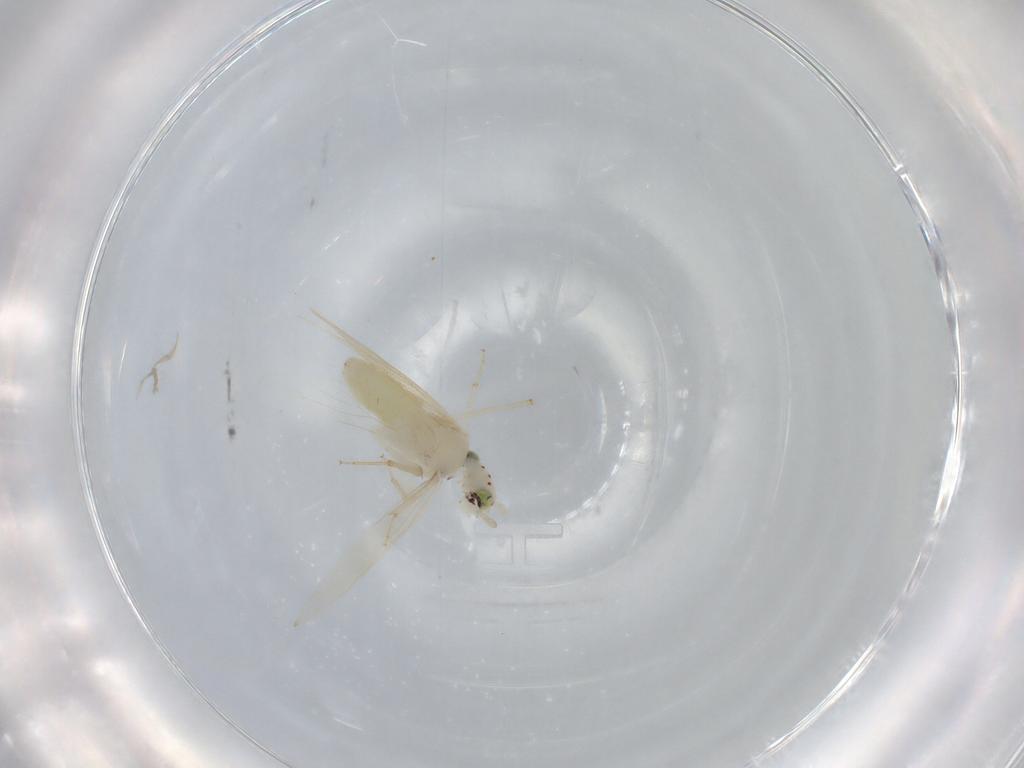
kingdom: Animalia
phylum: Arthropoda
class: Insecta
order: Psocodea
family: Lepidopsocidae
